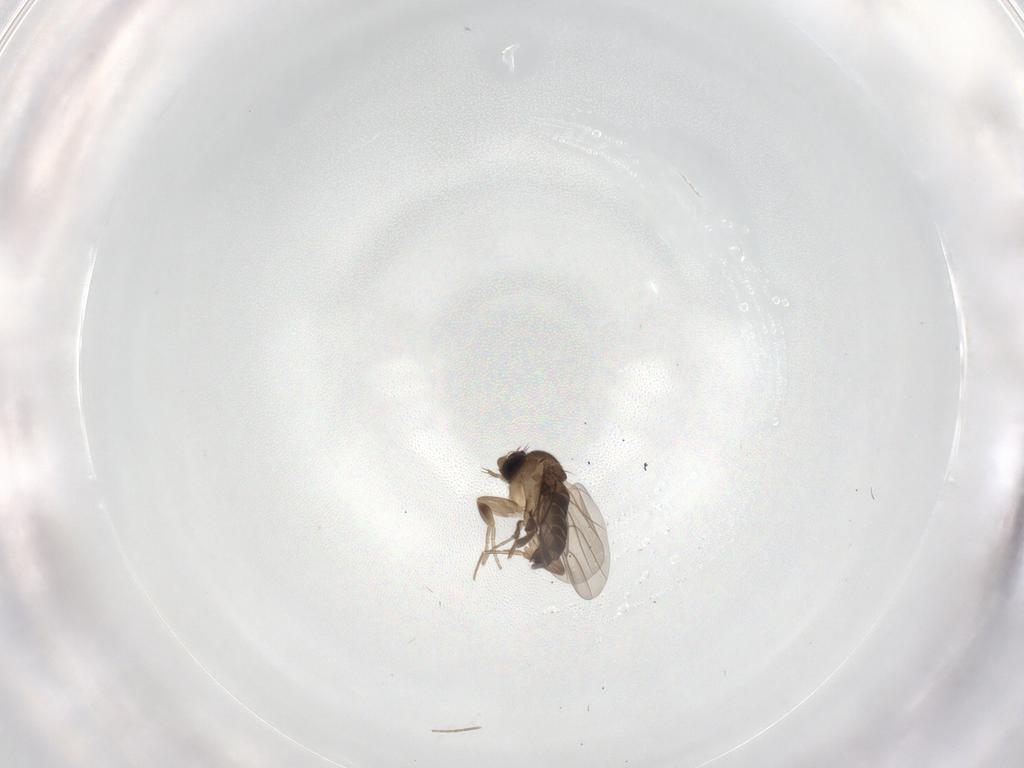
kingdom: Animalia
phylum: Arthropoda
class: Insecta
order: Diptera
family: Phoridae
